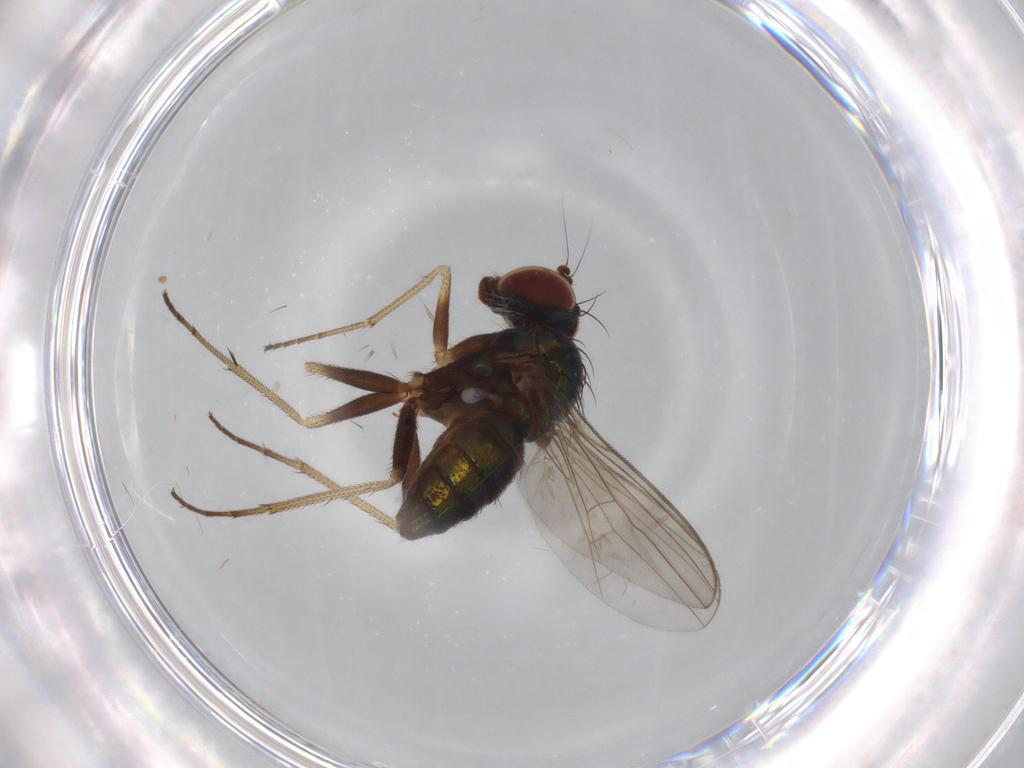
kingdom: Animalia
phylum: Arthropoda
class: Insecta
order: Diptera
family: Dolichopodidae
